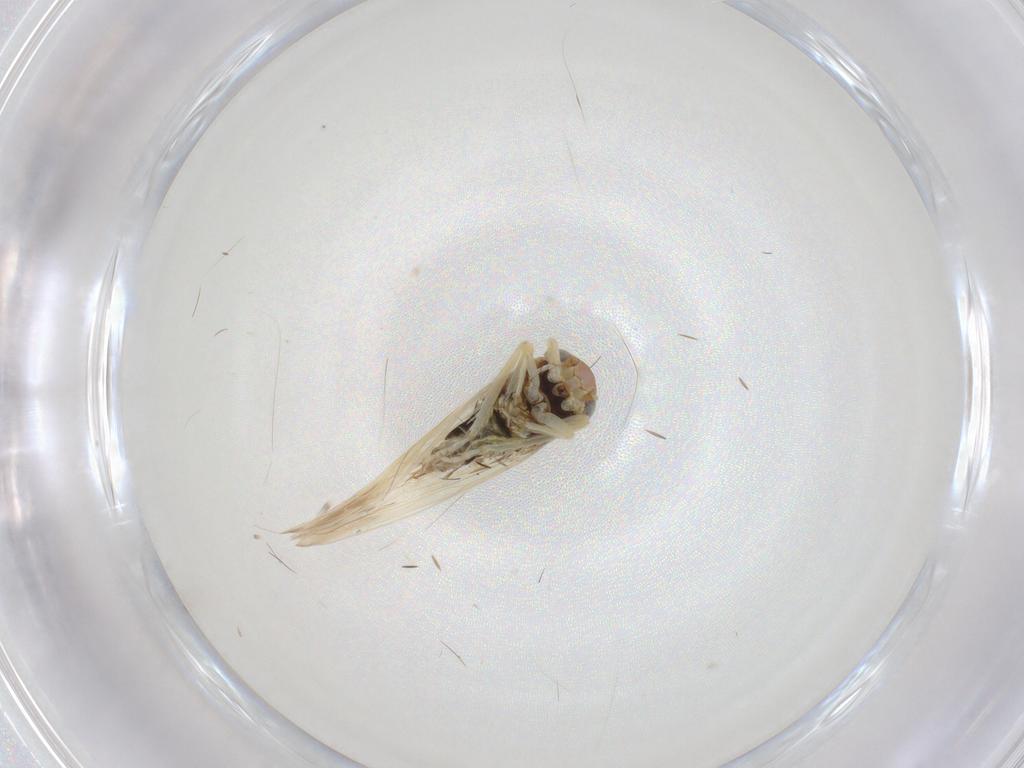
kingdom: Animalia
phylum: Arthropoda
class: Insecta
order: Hemiptera
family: Cicadellidae
